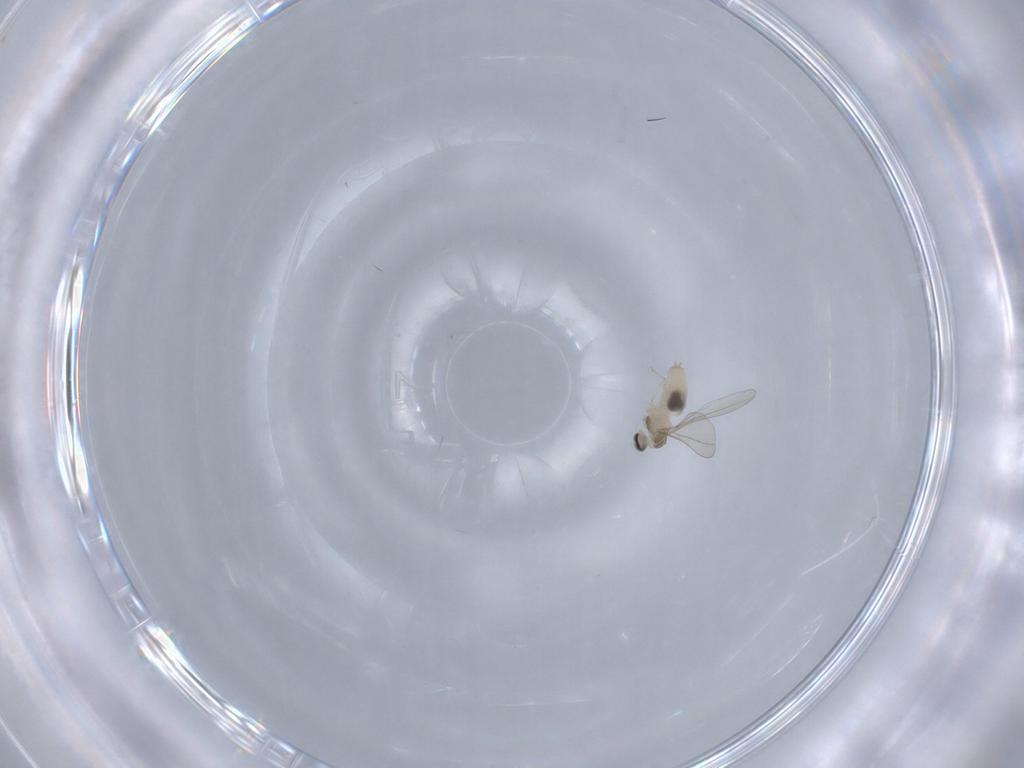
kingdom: Animalia
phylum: Arthropoda
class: Insecta
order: Diptera
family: Cecidomyiidae
